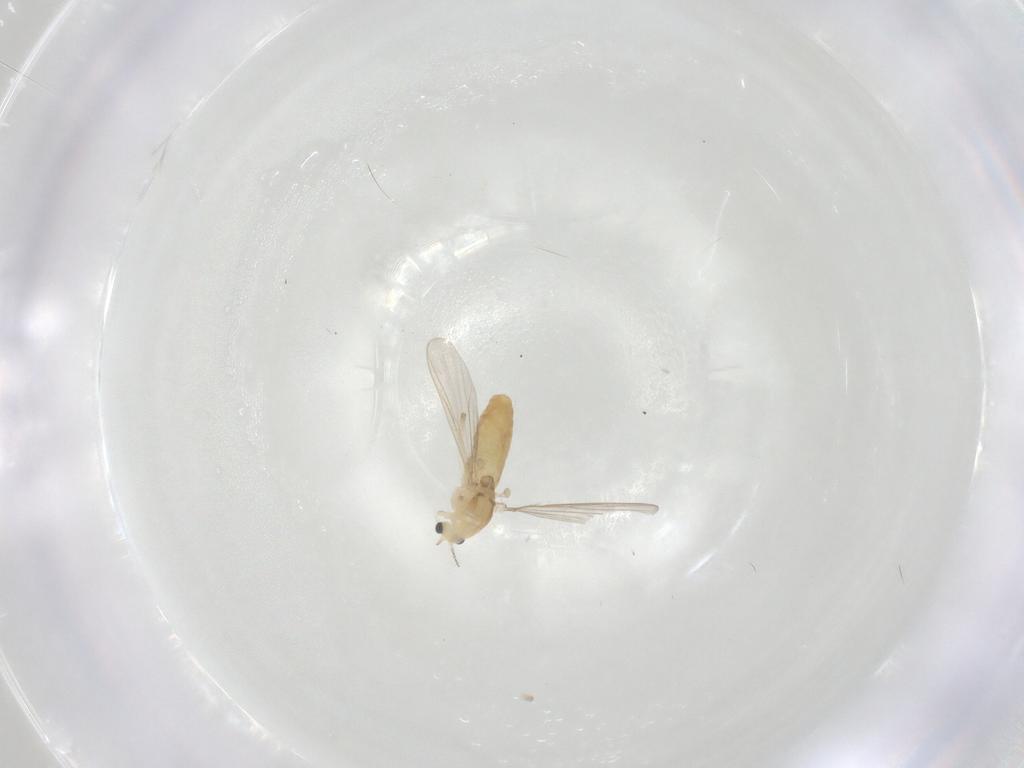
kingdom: Animalia
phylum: Arthropoda
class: Insecta
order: Diptera
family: Chironomidae
